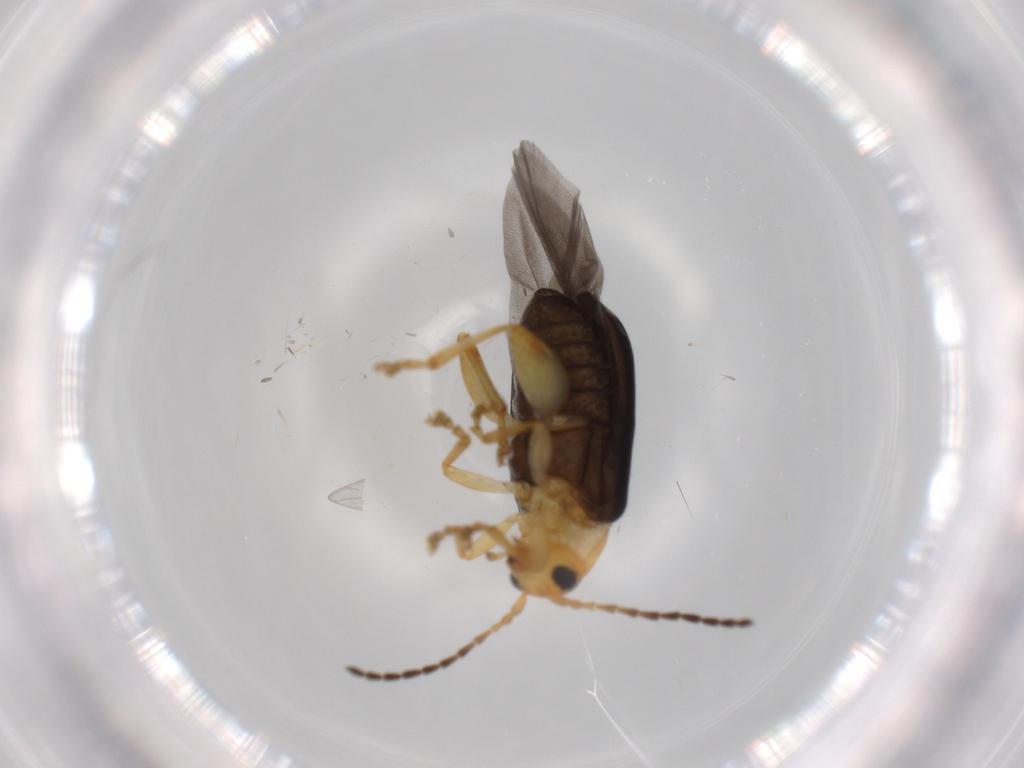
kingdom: Animalia
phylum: Arthropoda
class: Insecta
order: Coleoptera
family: Chrysomelidae
